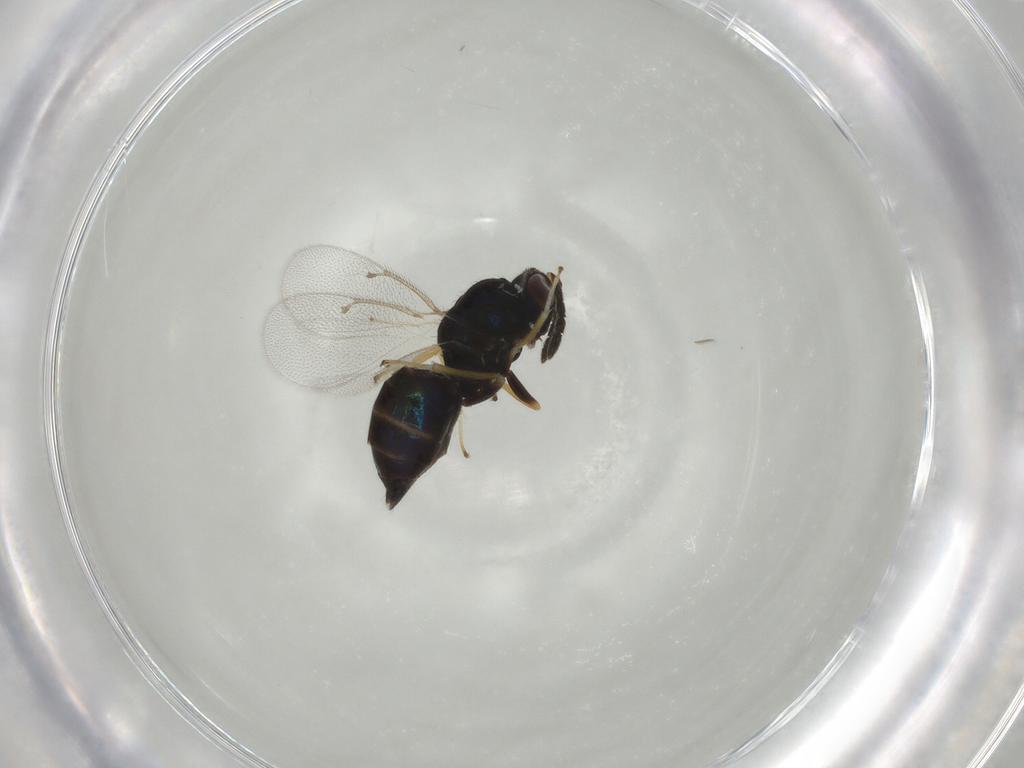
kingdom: Animalia
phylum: Arthropoda
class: Insecta
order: Hymenoptera
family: Eulophidae
